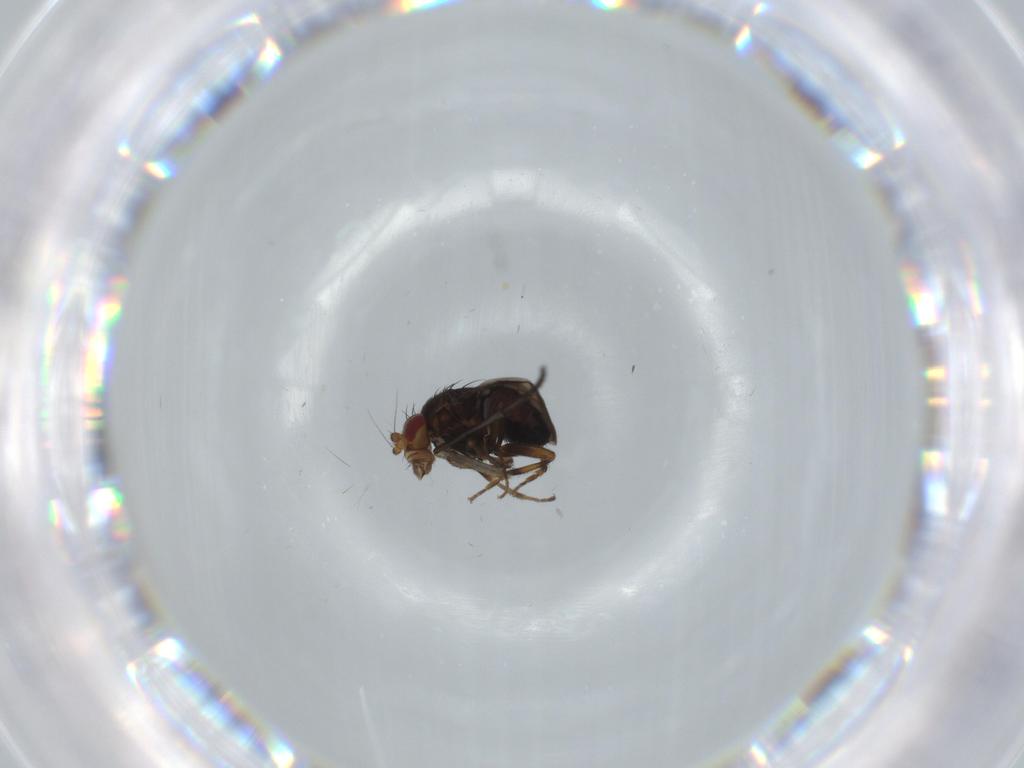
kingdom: Animalia
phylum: Arthropoda
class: Insecta
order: Diptera
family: Sciaridae
